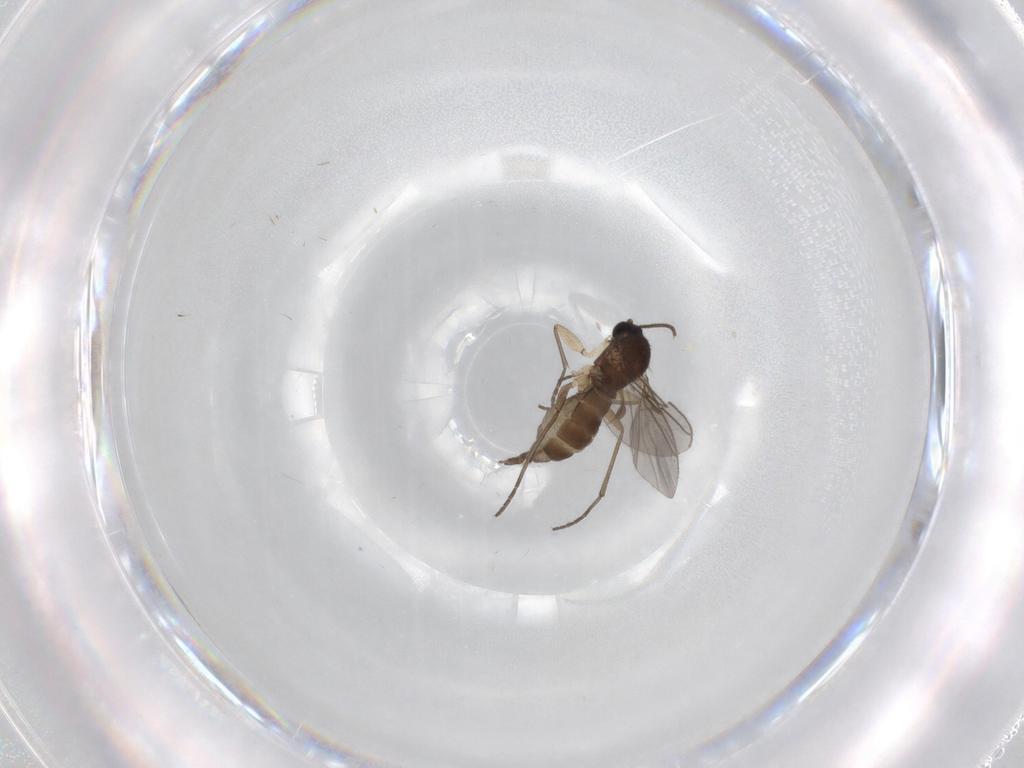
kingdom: Animalia
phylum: Arthropoda
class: Insecta
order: Diptera
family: Sciaridae
